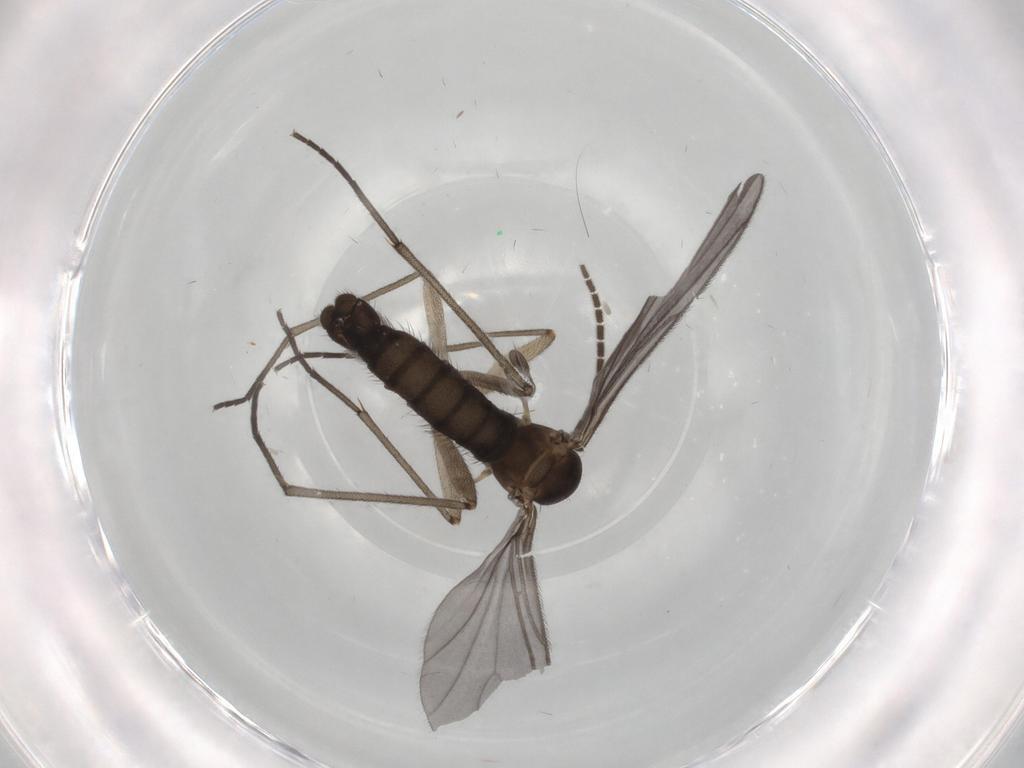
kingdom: Animalia
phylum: Arthropoda
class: Insecta
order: Diptera
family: Sciaridae
